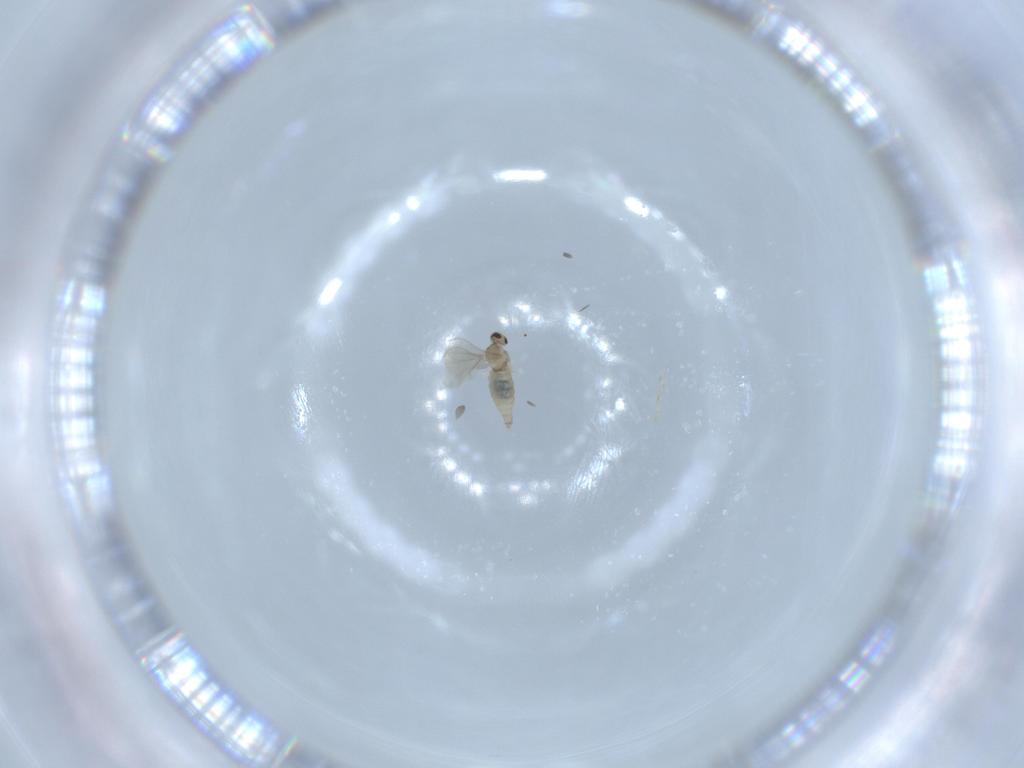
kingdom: Animalia
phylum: Arthropoda
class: Insecta
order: Diptera
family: Cecidomyiidae
